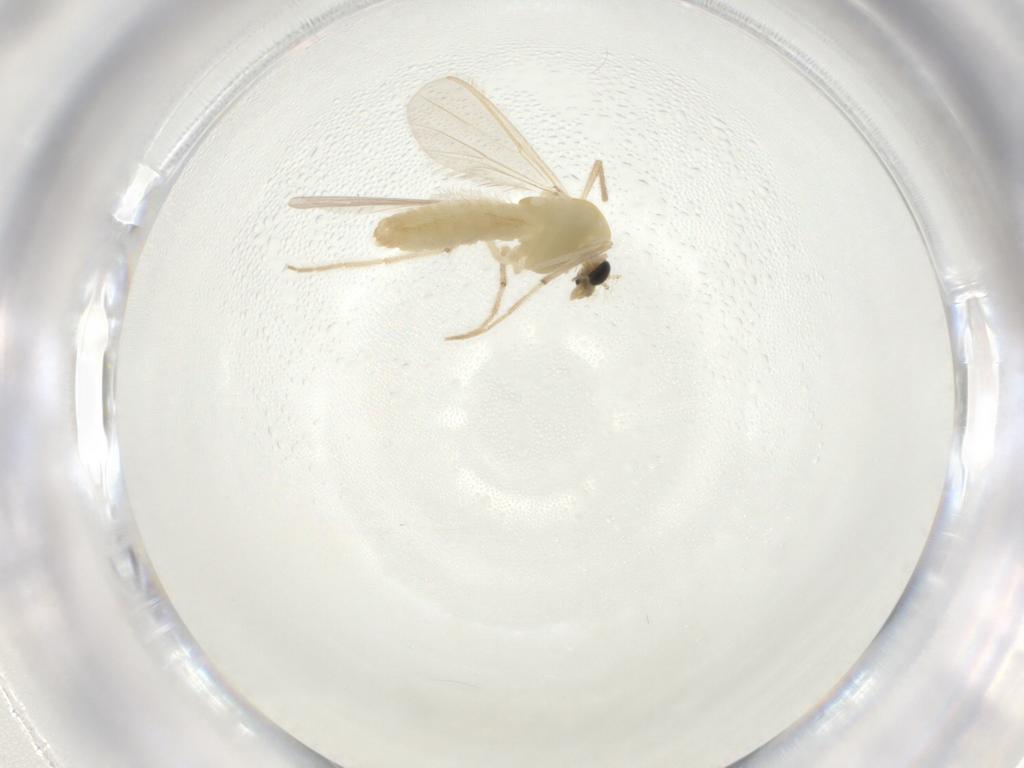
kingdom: Animalia
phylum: Arthropoda
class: Insecta
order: Diptera
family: Chironomidae
